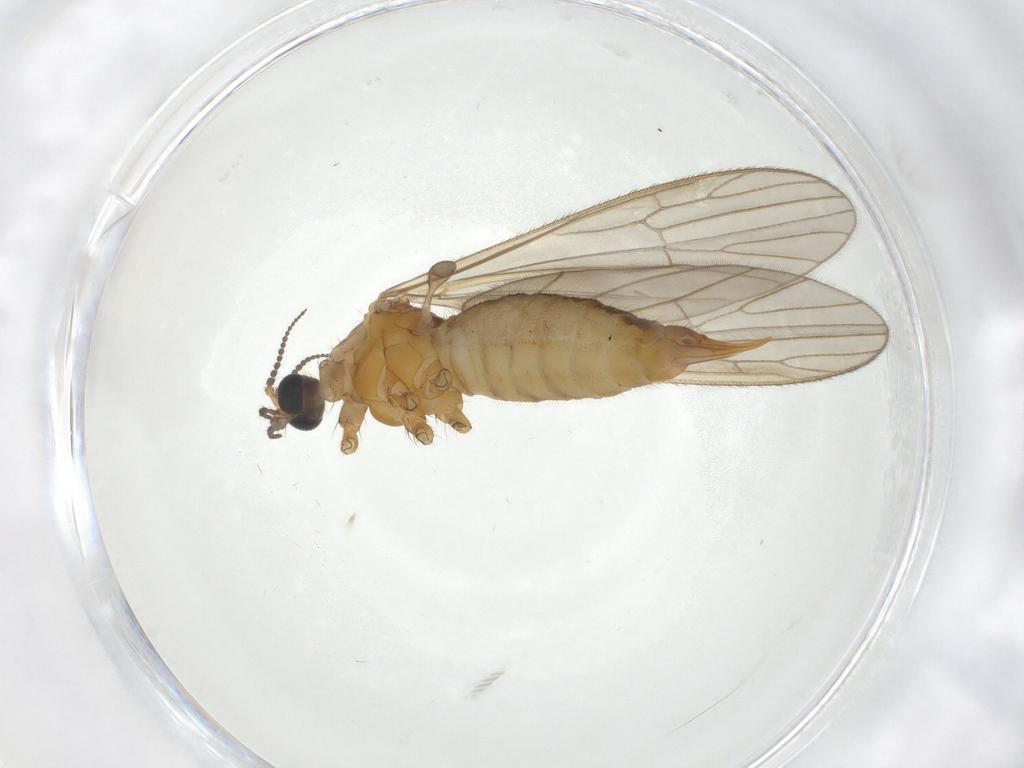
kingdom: Animalia
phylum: Arthropoda
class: Insecta
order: Diptera
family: Limoniidae
